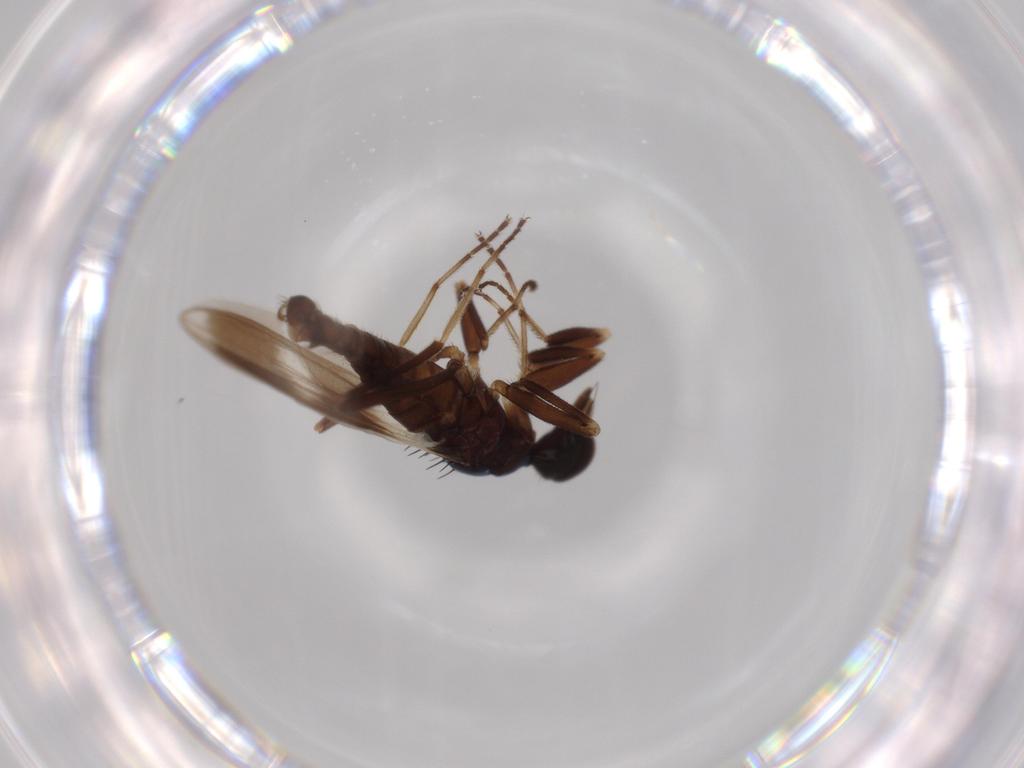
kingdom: Animalia
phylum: Arthropoda
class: Insecta
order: Diptera
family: Hybotidae
